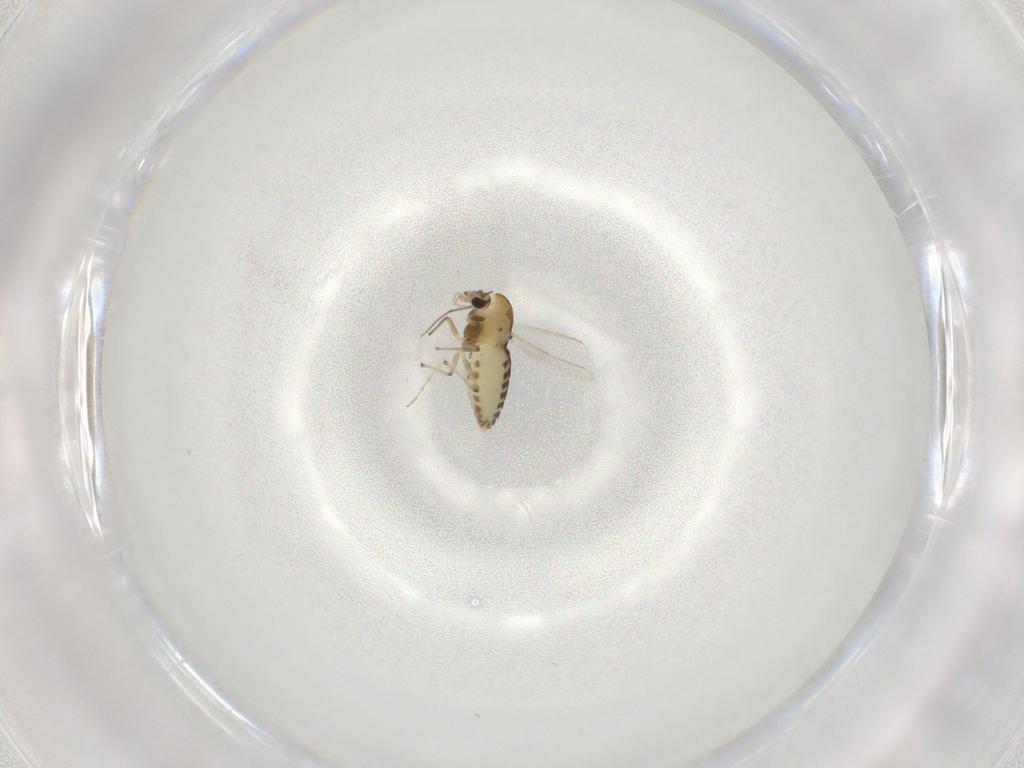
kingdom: Animalia
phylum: Arthropoda
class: Insecta
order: Diptera
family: Chironomidae
